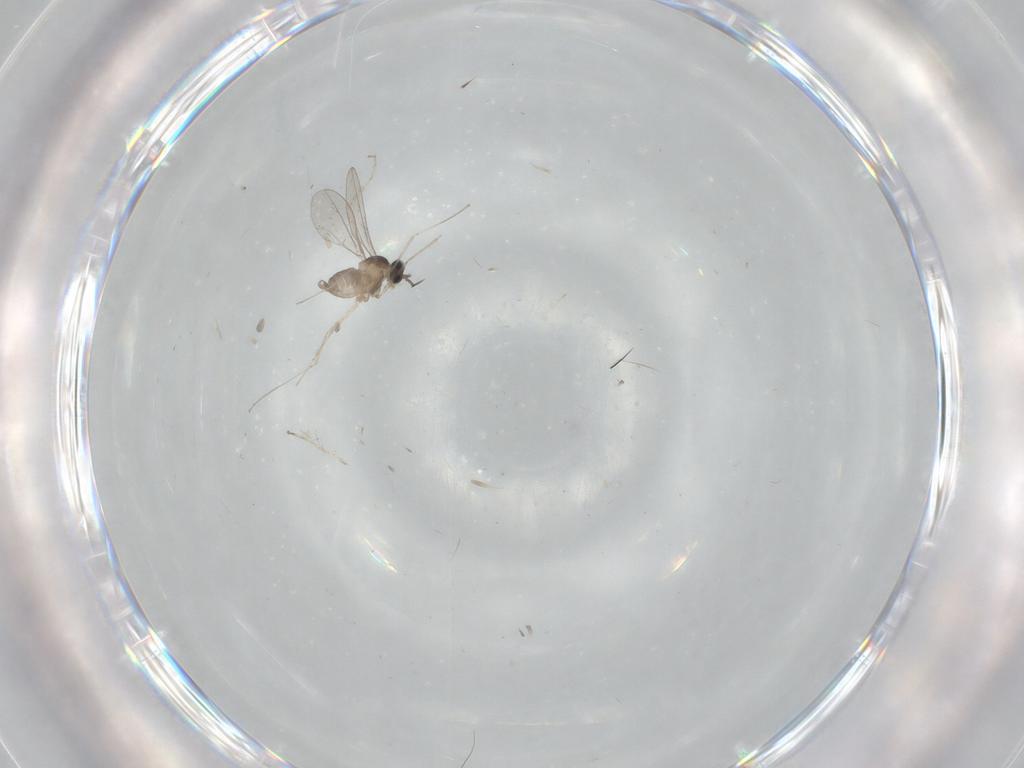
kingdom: Animalia
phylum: Arthropoda
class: Insecta
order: Diptera
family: Cecidomyiidae
